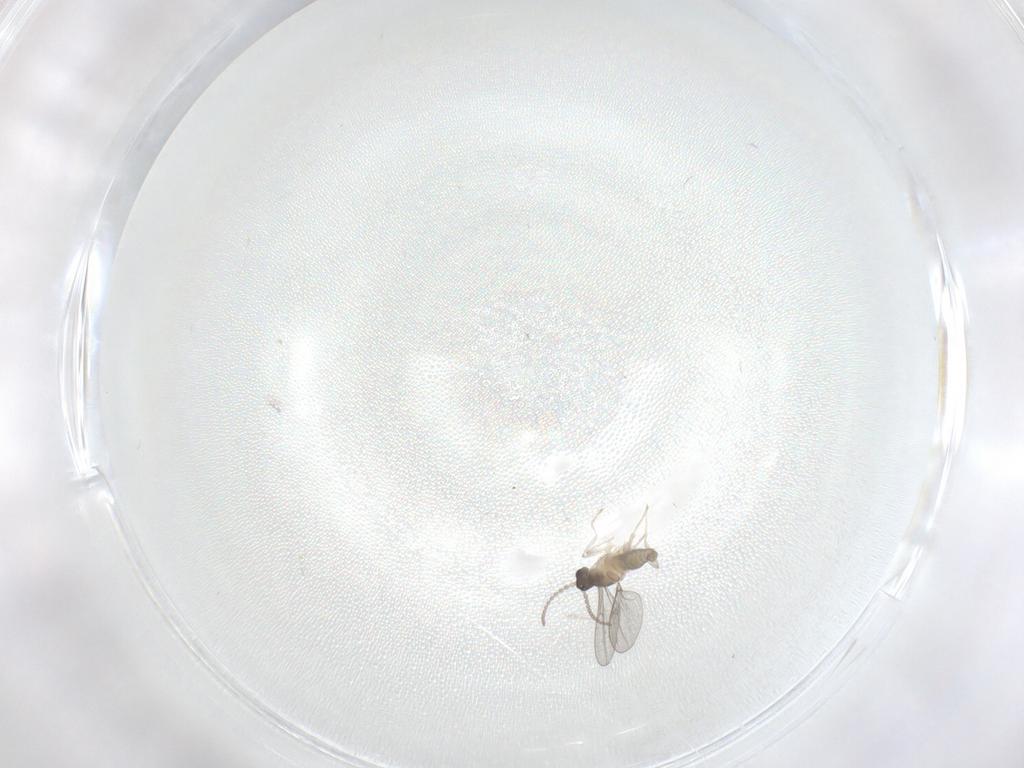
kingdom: Animalia
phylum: Arthropoda
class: Insecta
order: Diptera
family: Cecidomyiidae
